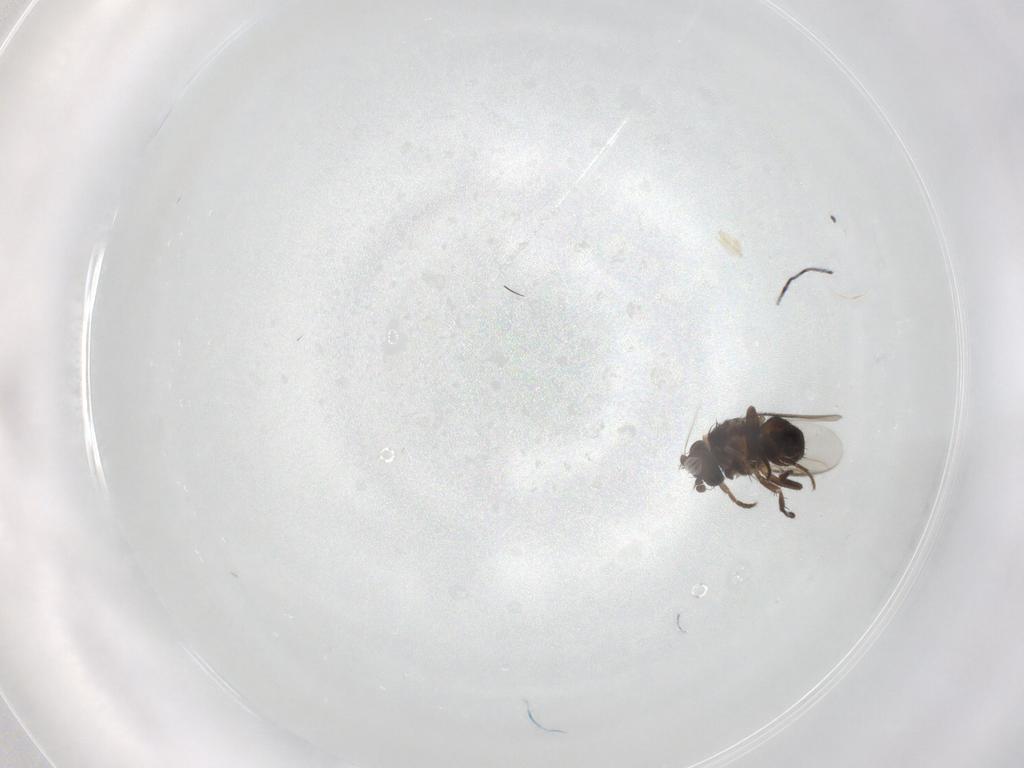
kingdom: Animalia
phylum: Arthropoda
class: Insecta
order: Diptera
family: Sphaeroceridae
